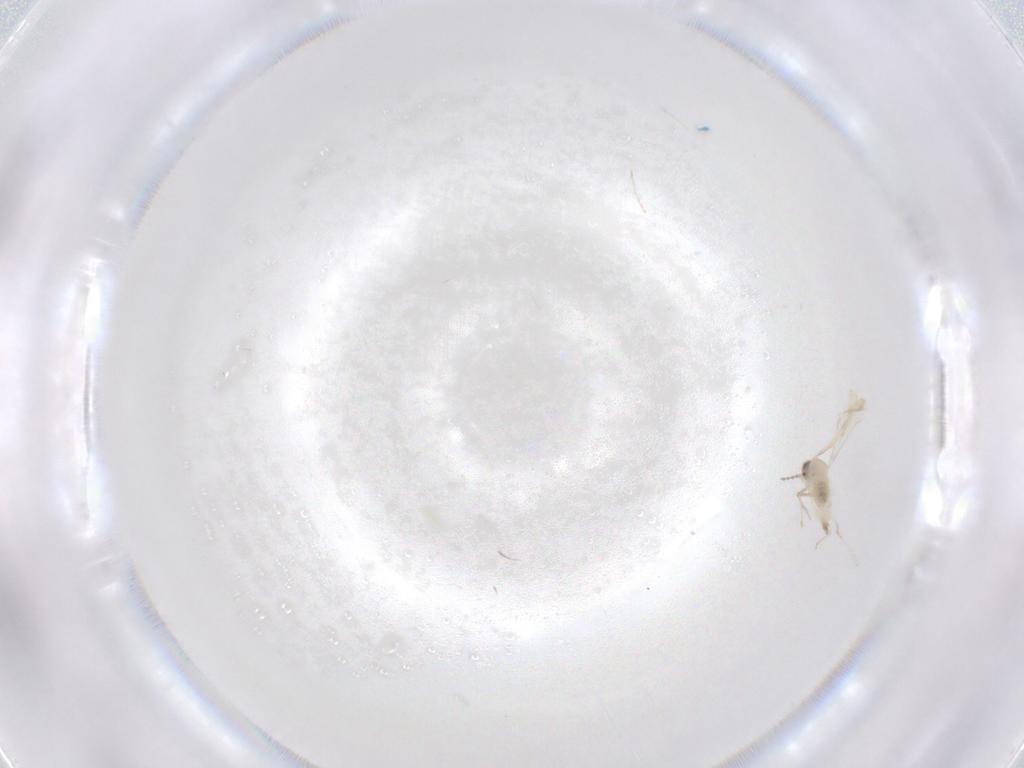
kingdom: Animalia
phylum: Arthropoda
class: Insecta
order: Diptera
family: Cecidomyiidae
